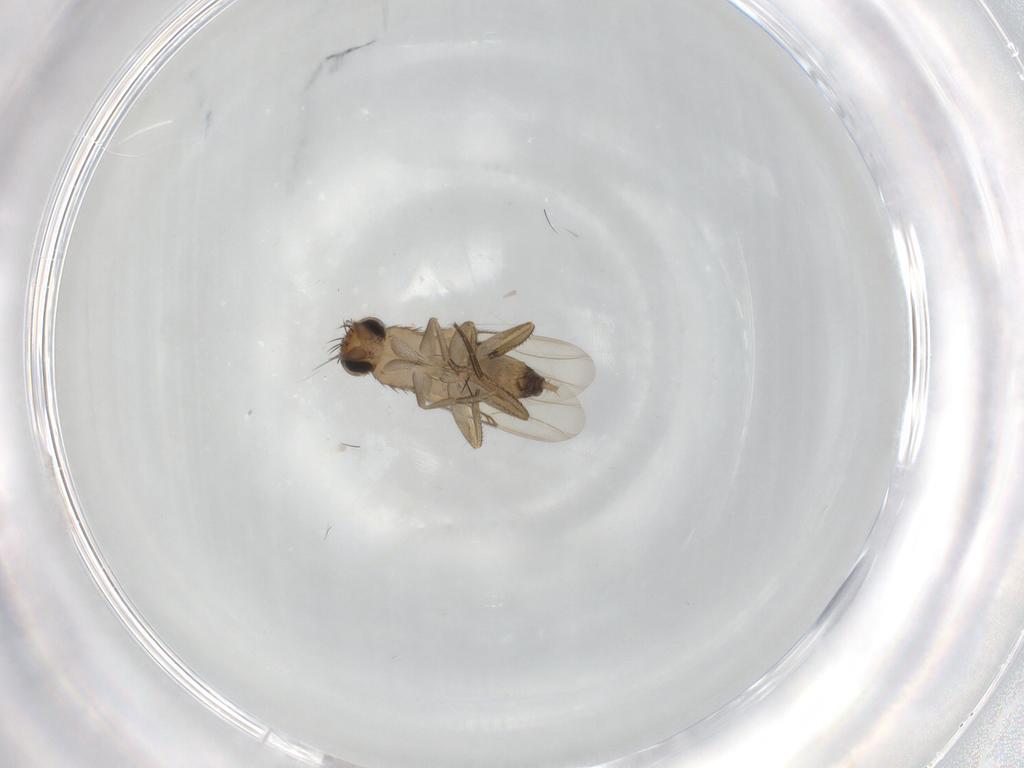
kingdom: Animalia
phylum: Arthropoda
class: Insecta
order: Diptera
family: Phoridae
